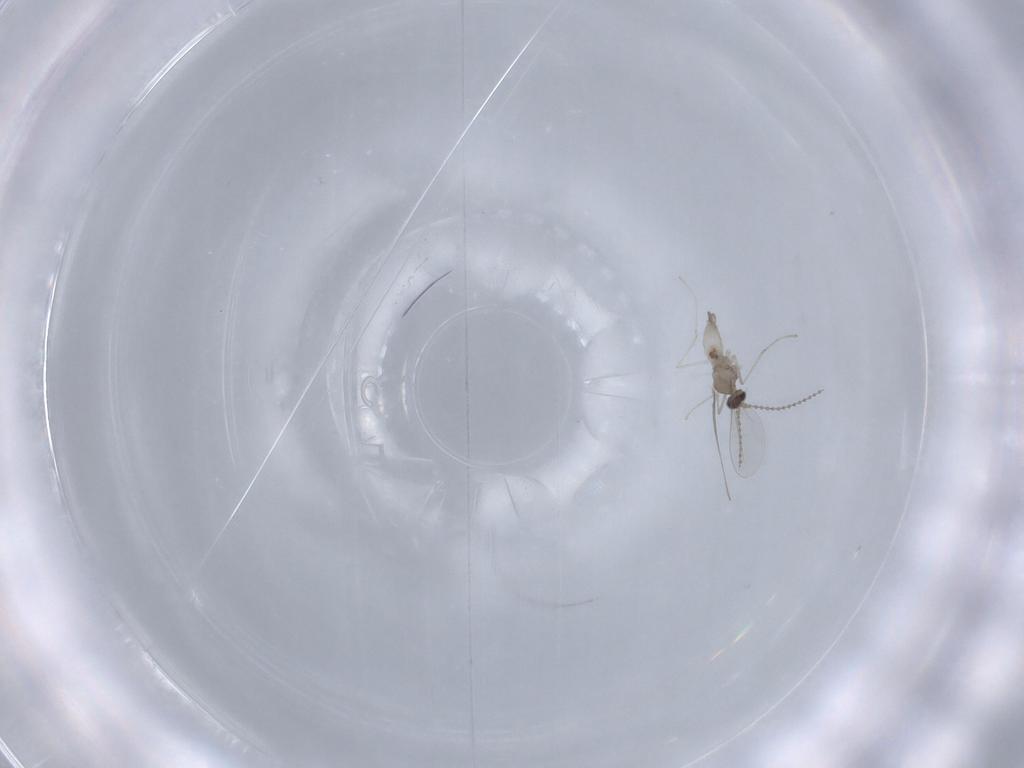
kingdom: Animalia
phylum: Arthropoda
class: Insecta
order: Diptera
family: Cecidomyiidae
